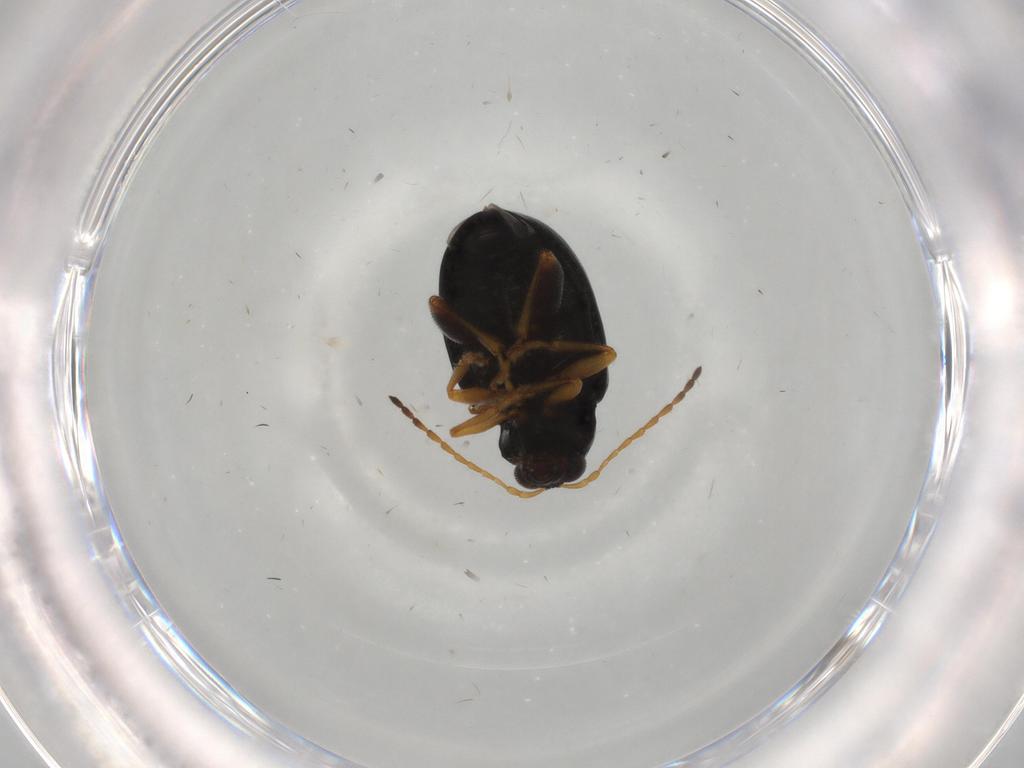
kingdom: Animalia
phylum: Arthropoda
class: Insecta
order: Coleoptera
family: Chrysomelidae
